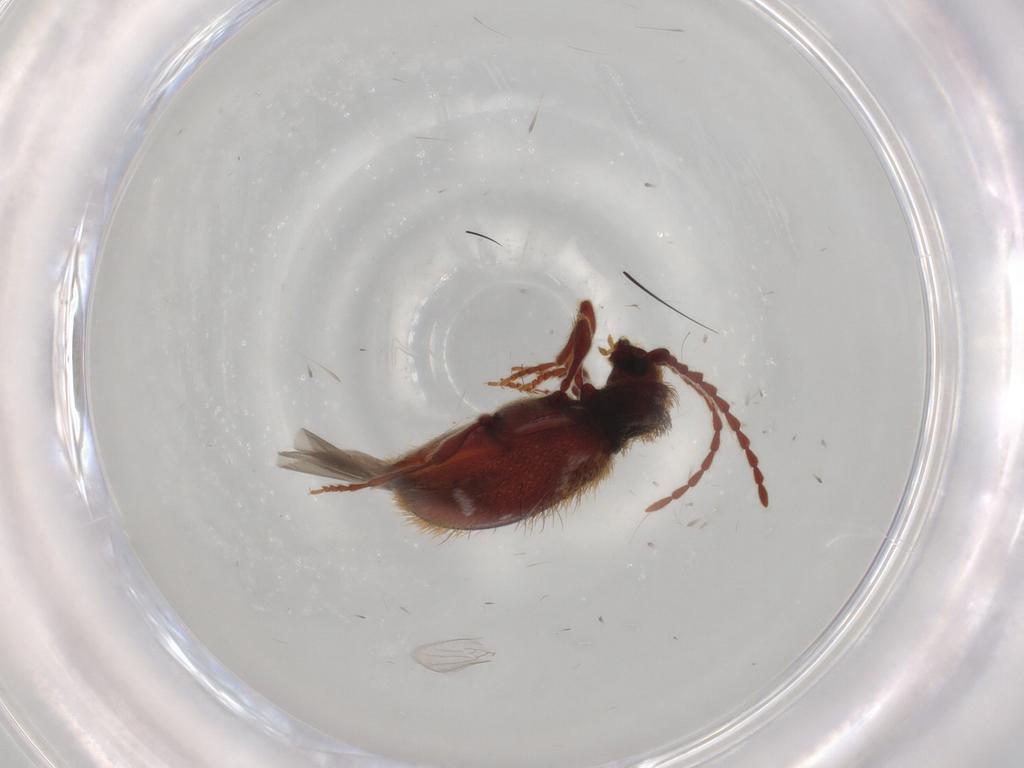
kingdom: Animalia
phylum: Arthropoda
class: Insecta
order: Coleoptera
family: Ptinidae
